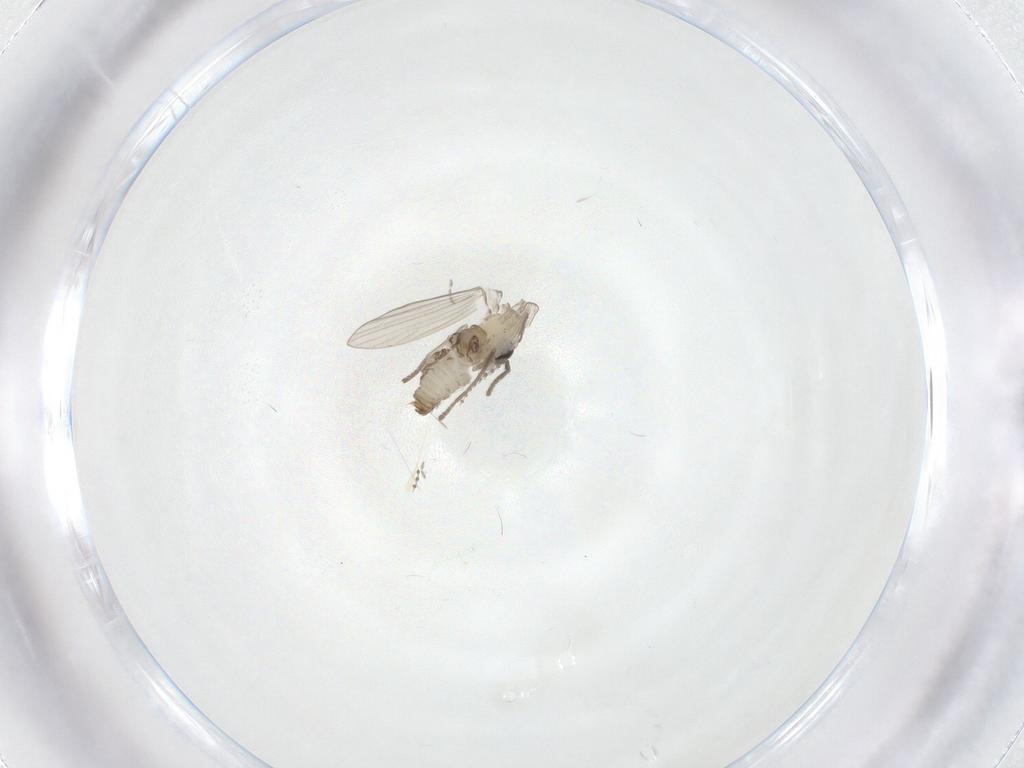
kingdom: Animalia
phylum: Arthropoda
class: Insecta
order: Diptera
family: Psychodidae
